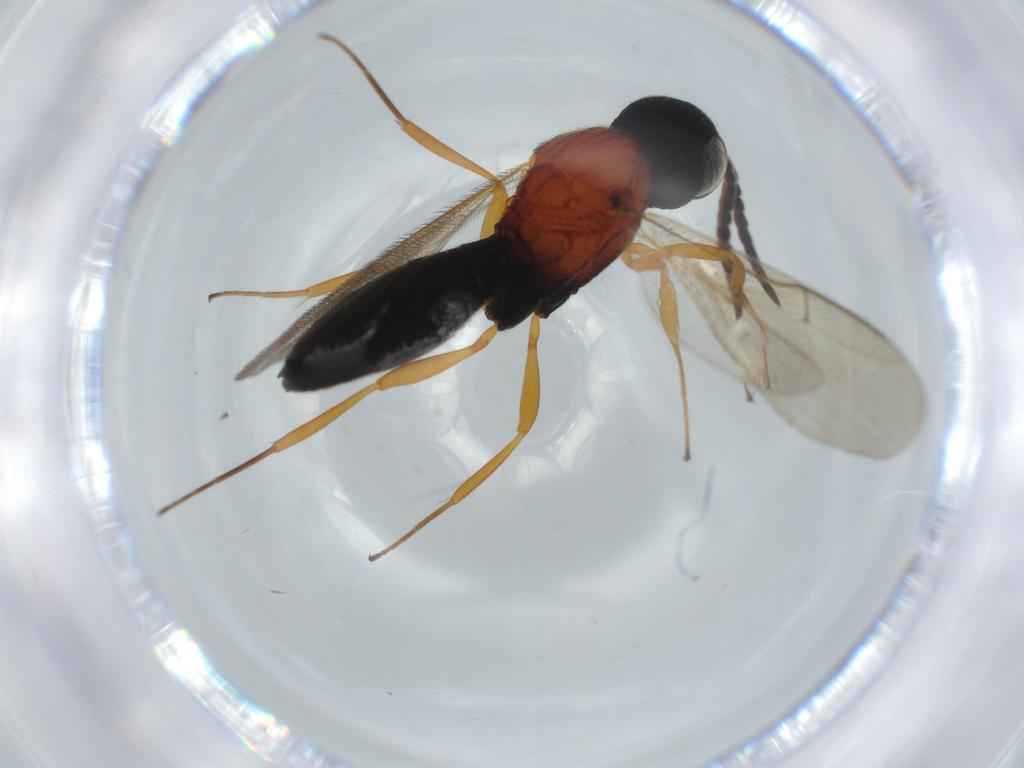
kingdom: Animalia
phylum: Arthropoda
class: Insecta
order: Hymenoptera
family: Scelionidae
